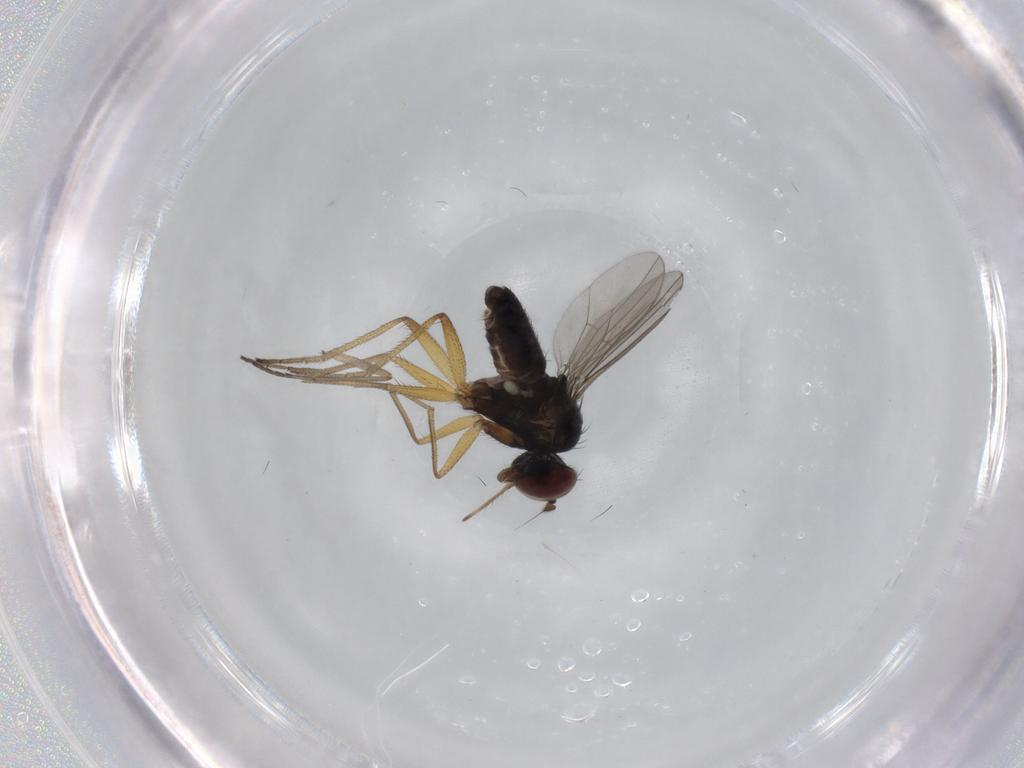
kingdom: Animalia
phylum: Arthropoda
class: Insecta
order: Diptera
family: Dolichopodidae
